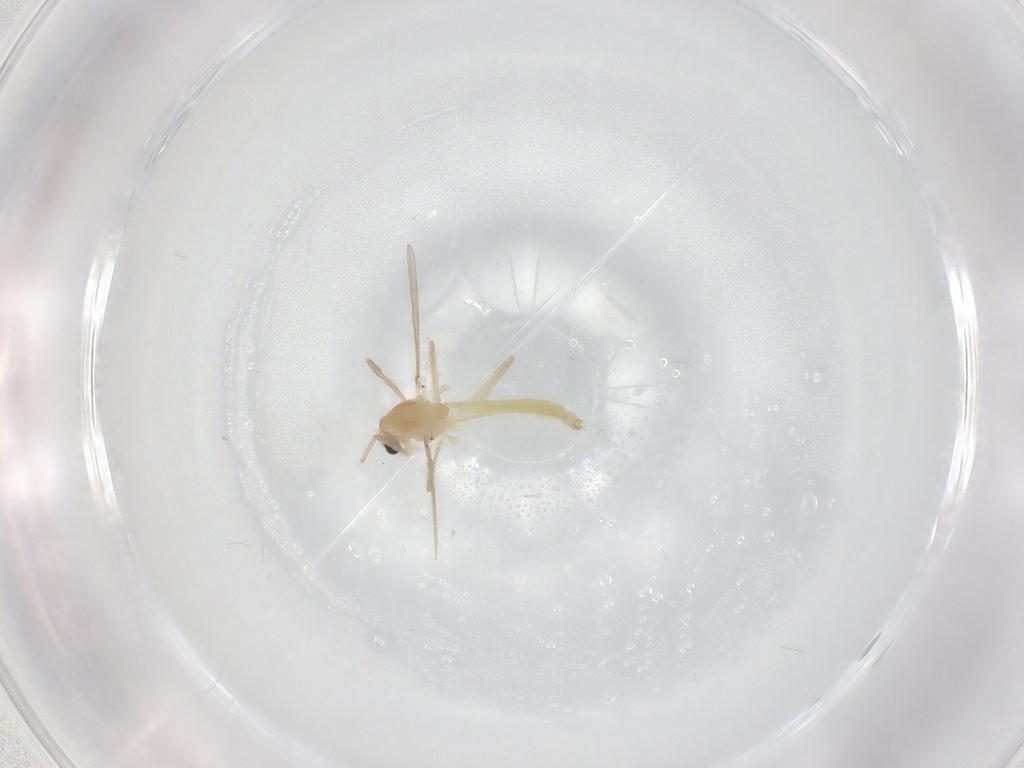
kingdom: Animalia
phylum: Arthropoda
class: Insecta
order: Diptera
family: Chironomidae
